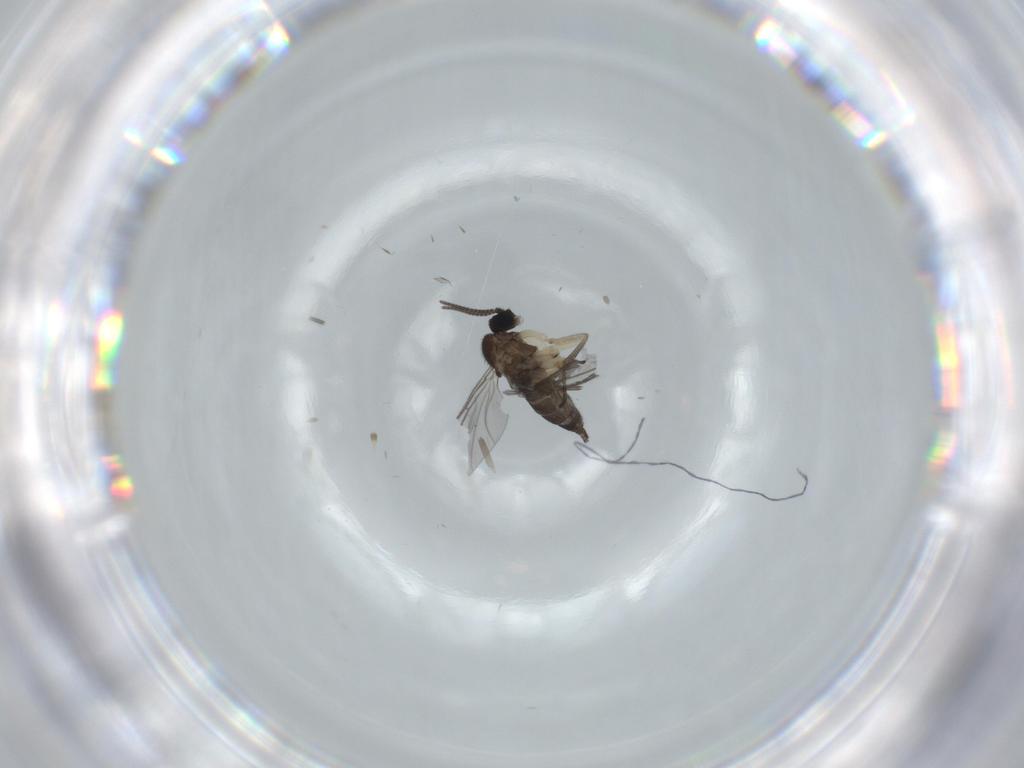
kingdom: Animalia
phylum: Arthropoda
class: Insecta
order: Diptera
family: Sciaridae
